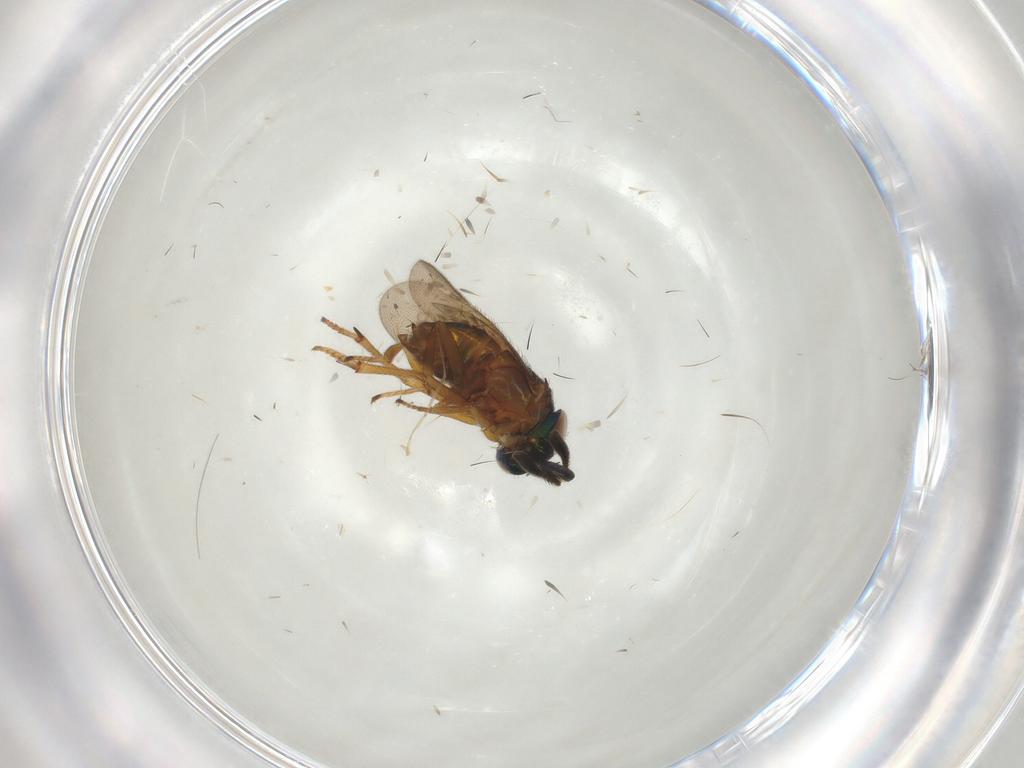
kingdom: Animalia
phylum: Arthropoda
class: Insecta
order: Hymenoptera
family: Encyrtidae
